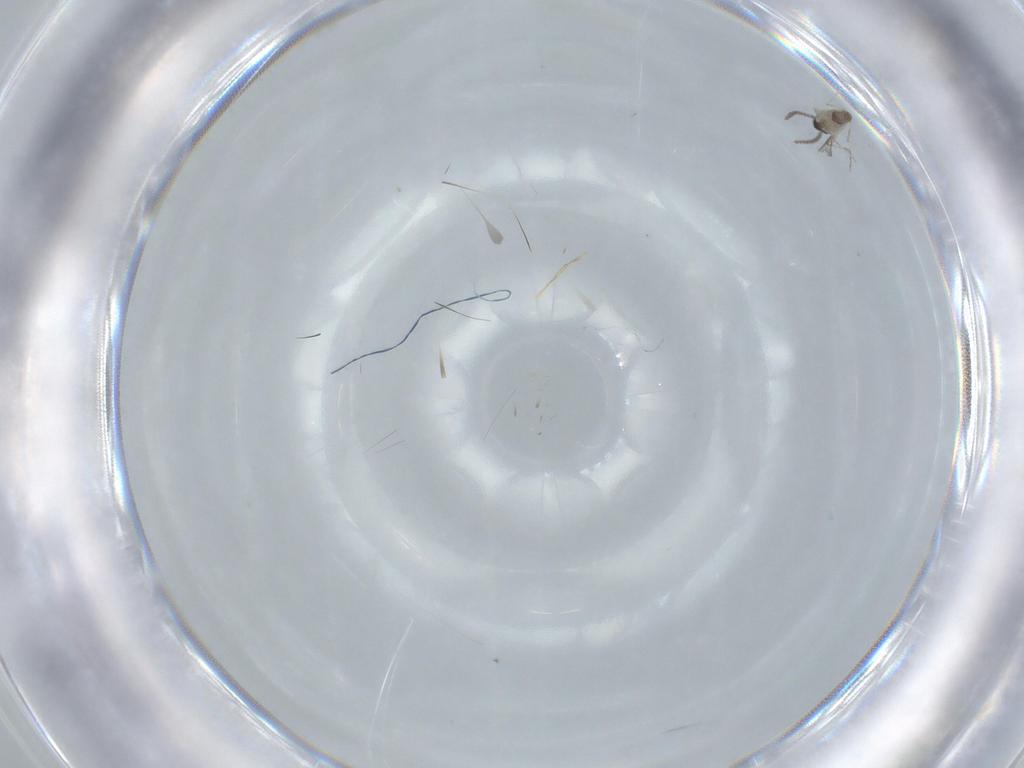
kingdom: Animalia
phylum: Arthropoda
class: Insecta
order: Diptera
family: Cecidomyiidae
